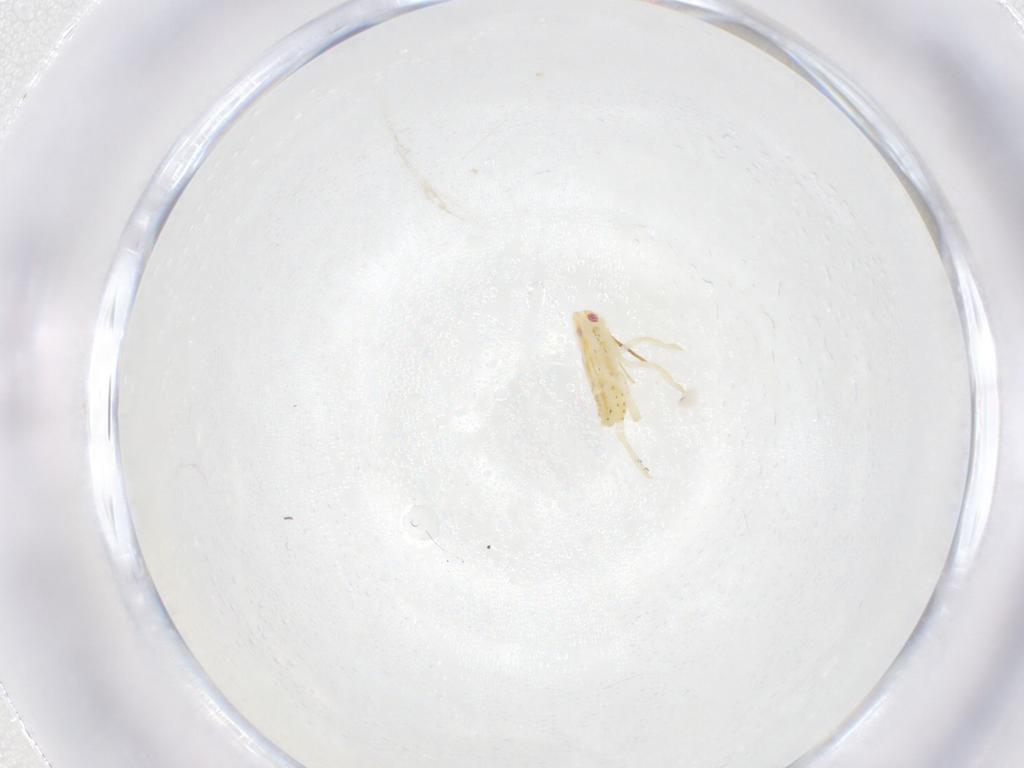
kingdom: Animalia
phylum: Arthropoda
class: Insecta
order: Hemiptera
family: Flatidae
